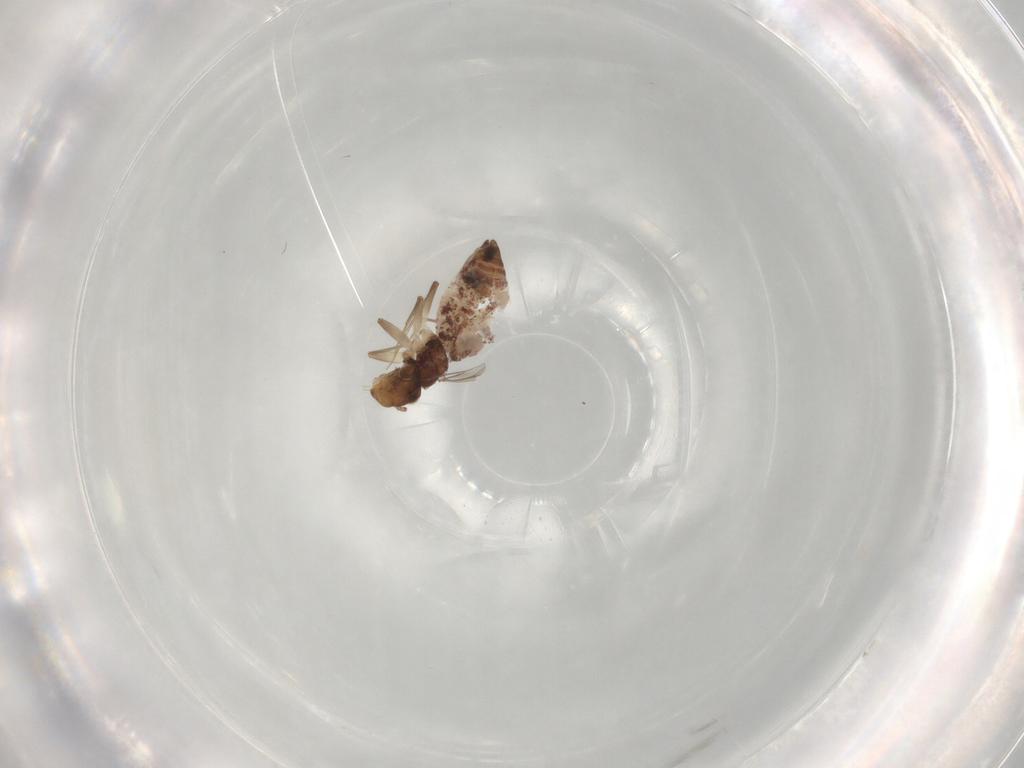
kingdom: Animalia
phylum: Arthropoda
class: Insecta
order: Psocodea
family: Lepidopsocidae
